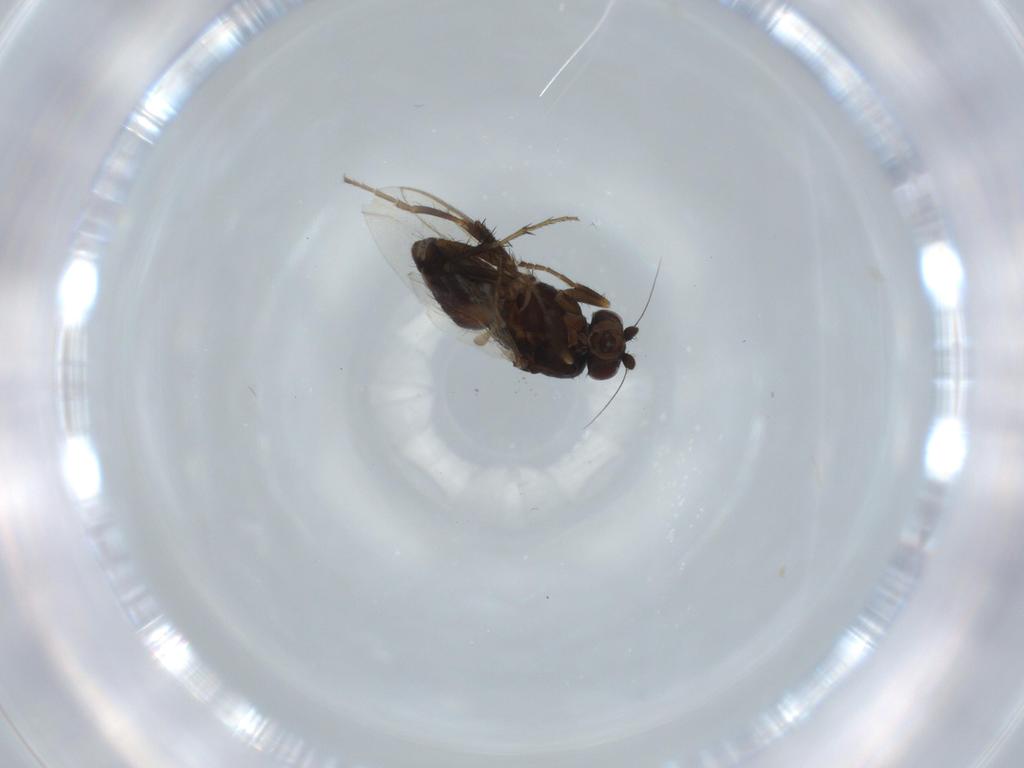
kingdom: Animalia
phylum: Arthropoda
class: Insecta
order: Diptera
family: Sphaeroceridae
